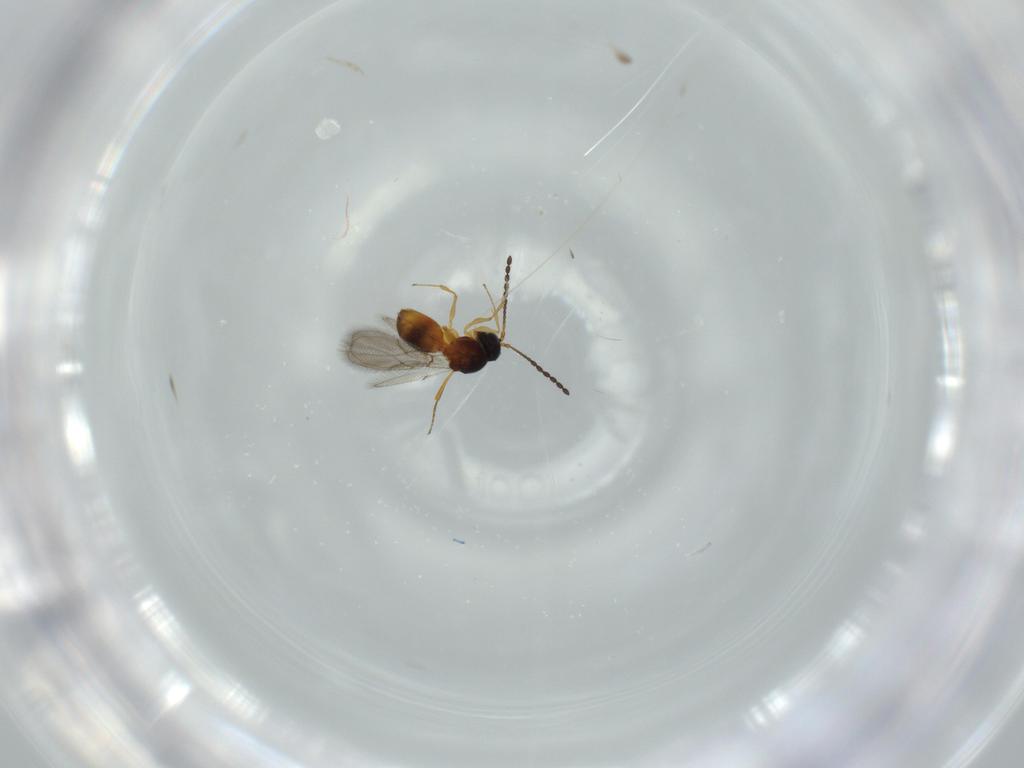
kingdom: Animalia
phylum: Arthropoda
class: Insecta
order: Hymenoptera
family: Figitidae
